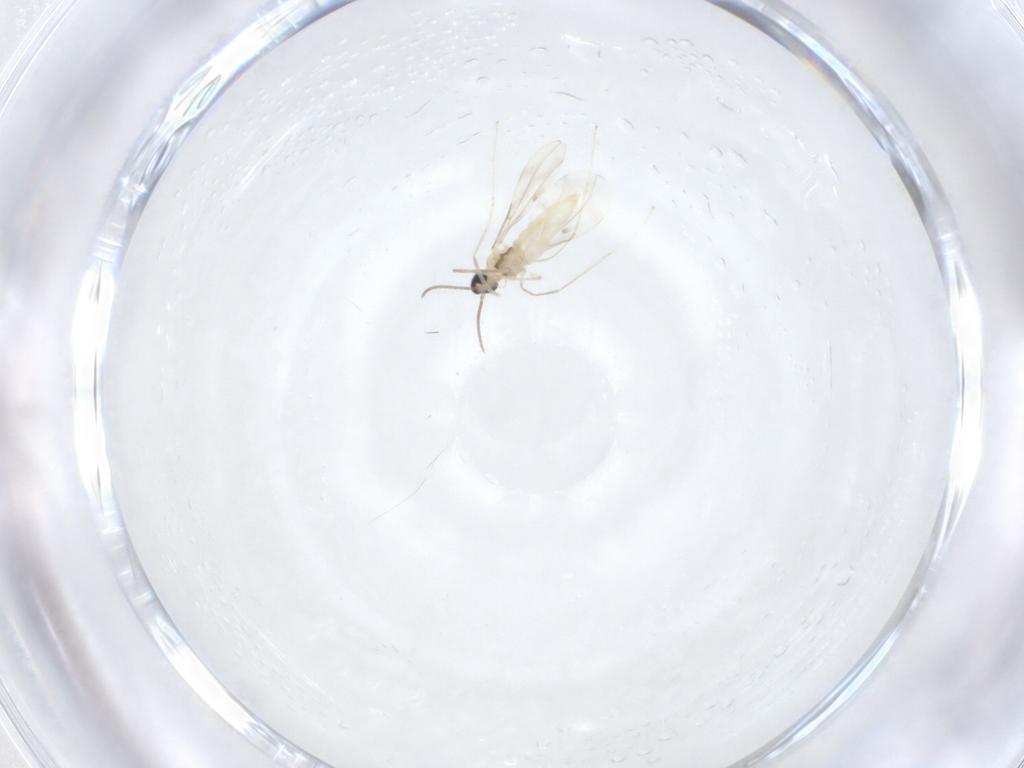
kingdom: Animalia
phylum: Arthropoda
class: Insecta
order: Diptera
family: Cecidomyiidae
